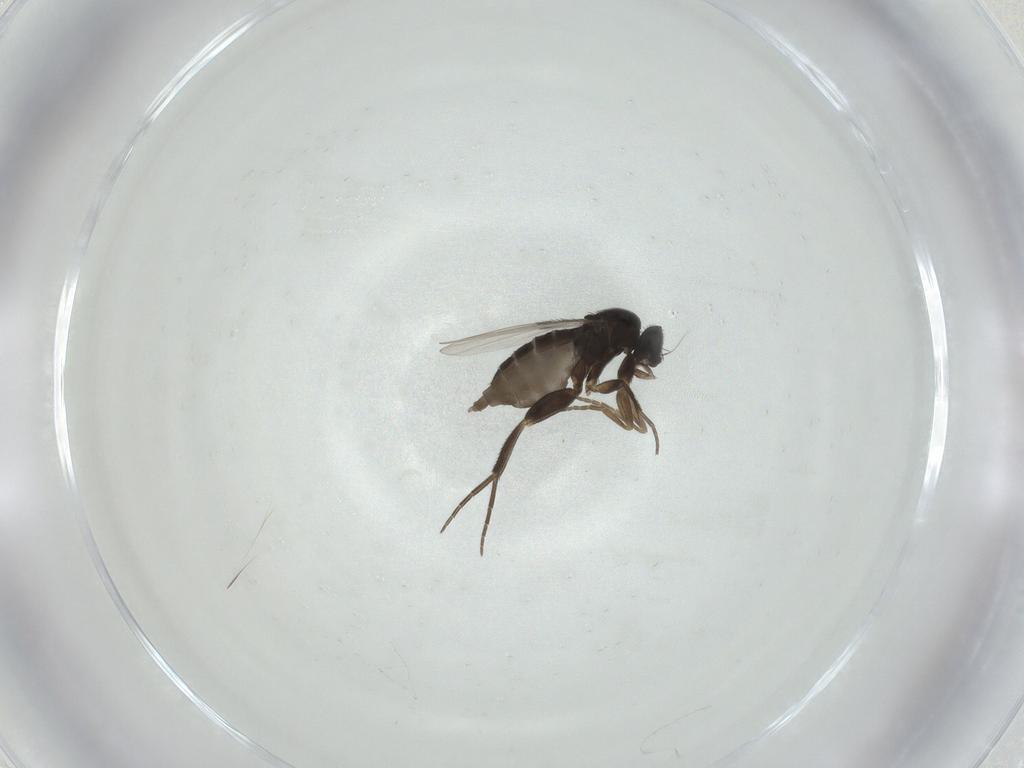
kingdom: Animalia
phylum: Arthropoda
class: Insecta
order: Diptera
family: Phoridae
